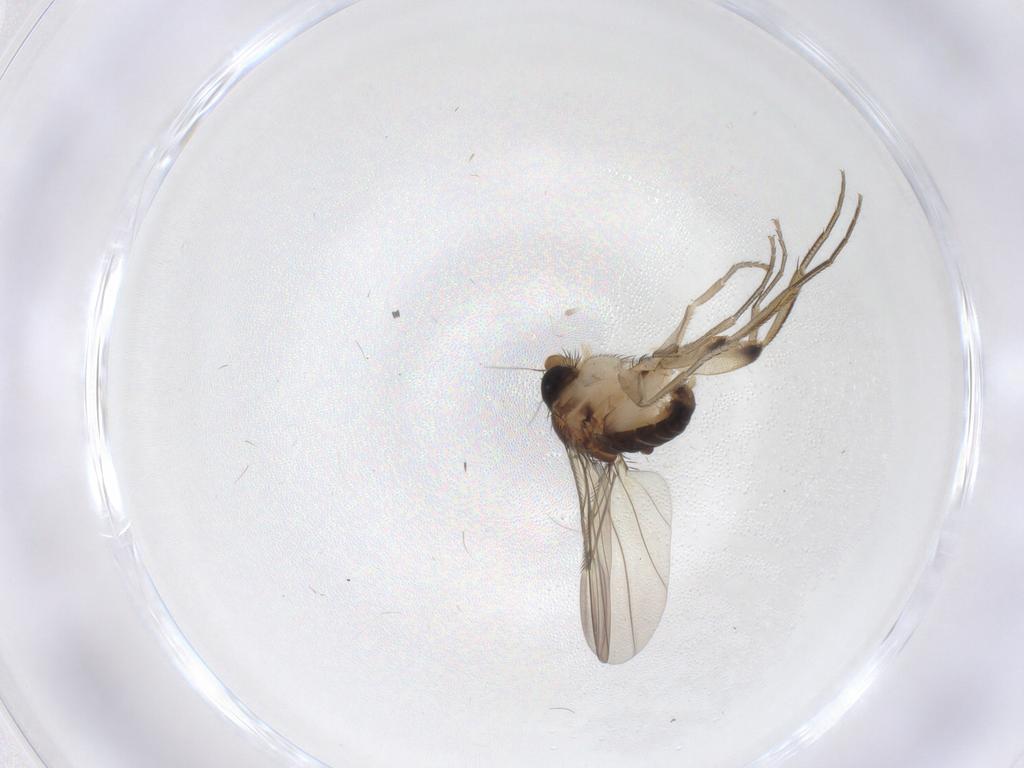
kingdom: Animalia
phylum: Arthropoda
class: Insecta
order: Diptera
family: Phoridae
